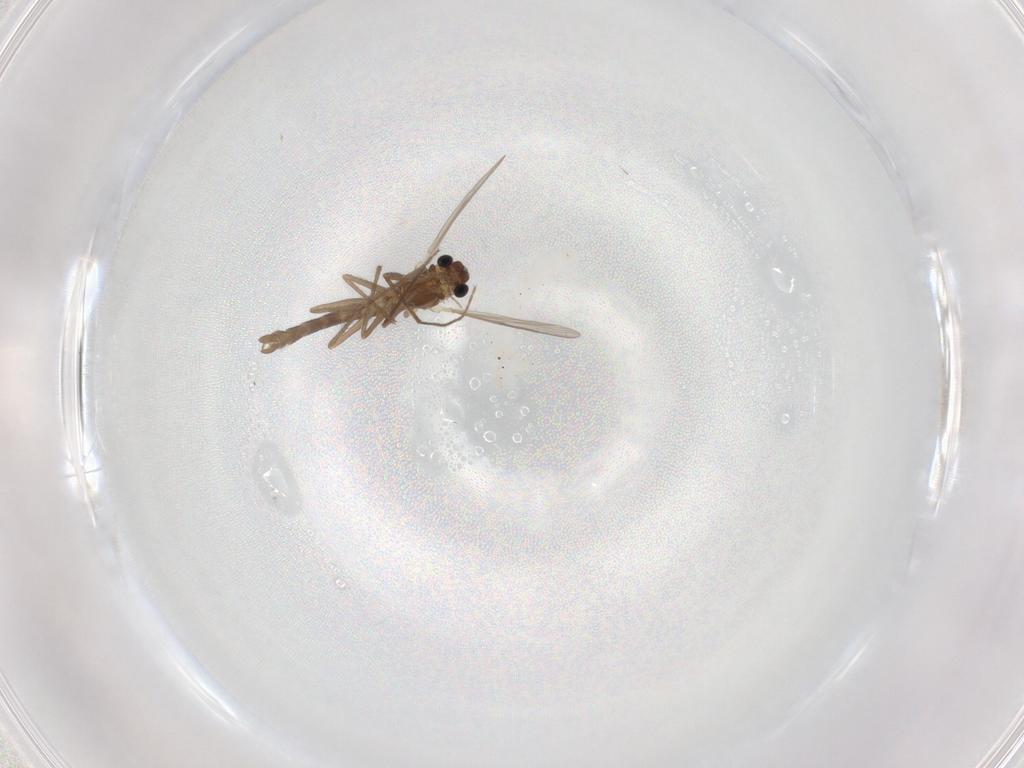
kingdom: Animalia
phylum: Arthropoda
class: Insecta
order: Diptera
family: Chironomidae
